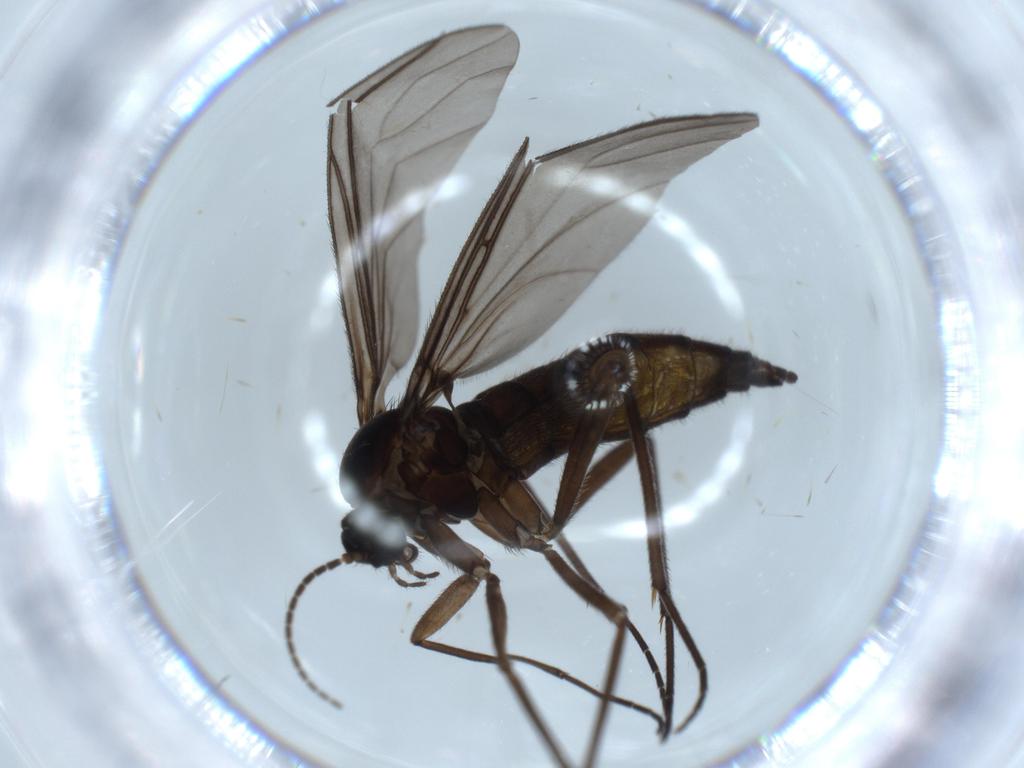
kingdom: Animalia
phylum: Arthropoda
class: Insecta
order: Diptera
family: Sciaridae
